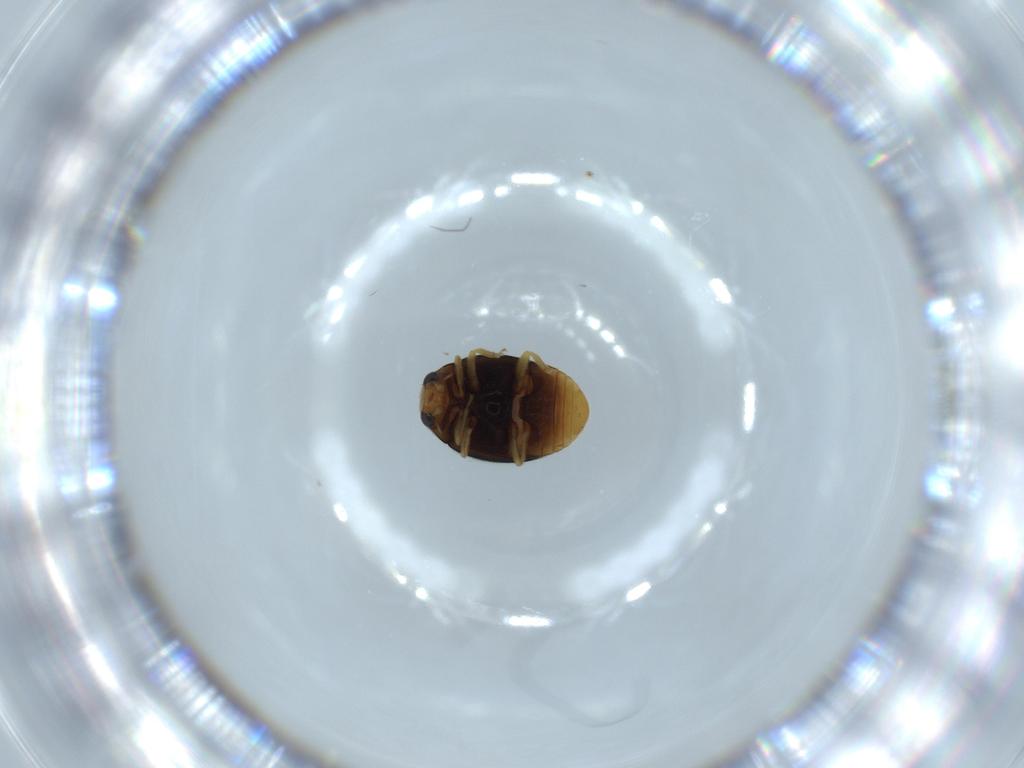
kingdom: Animalia
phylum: Arthropoda
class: Insecta
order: Coleoptera
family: Coccinellidae
